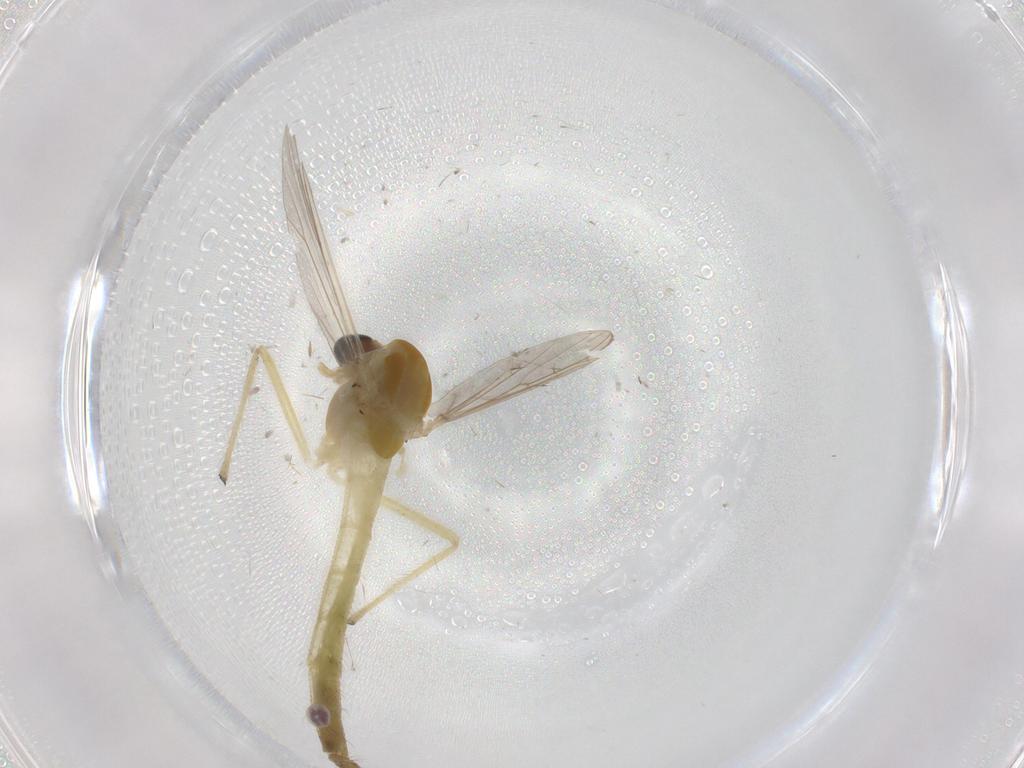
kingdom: Animalia
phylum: Arthropoda
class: Insecta
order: Diptera
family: Chironomidae
